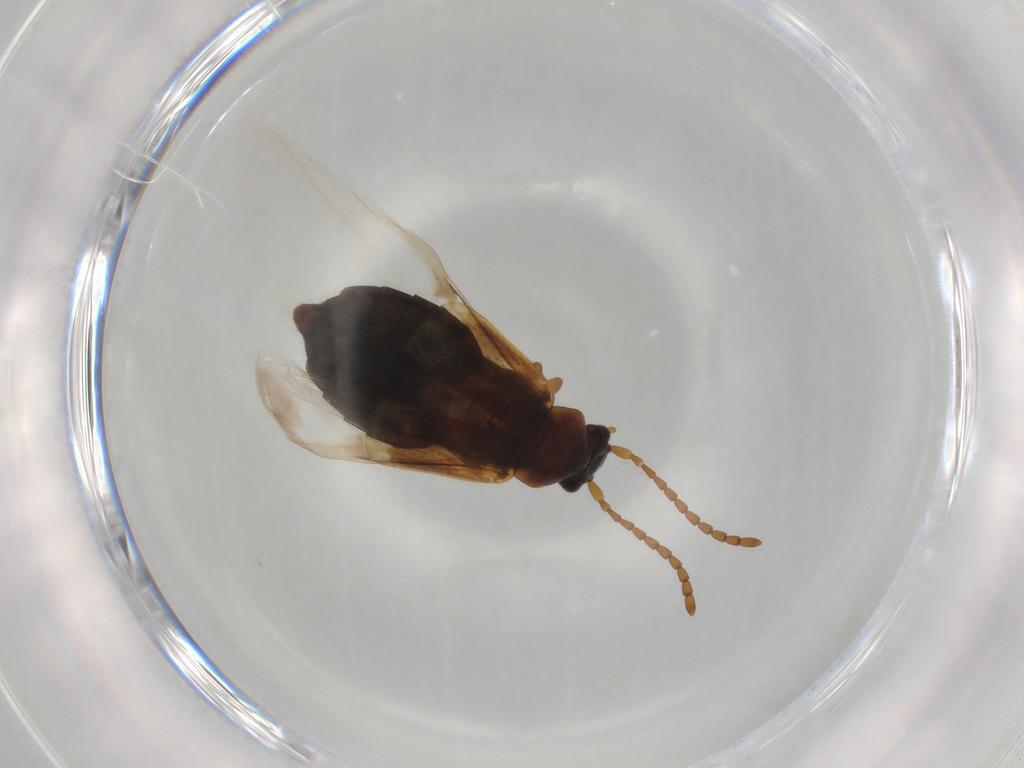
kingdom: Animalia
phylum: Arthropoda
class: Insecta
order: Coleoptera
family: Staphylinidae
